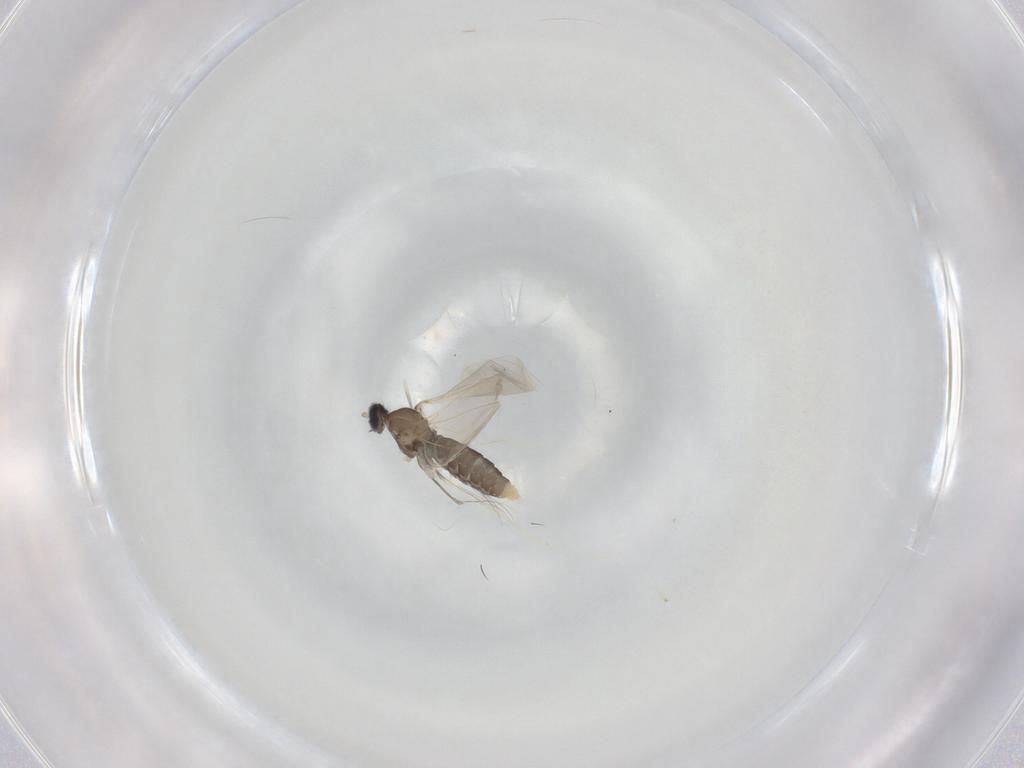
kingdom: Animalia
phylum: Arthropoda
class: Insecta
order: Diptera
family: Cecidomyiidae
